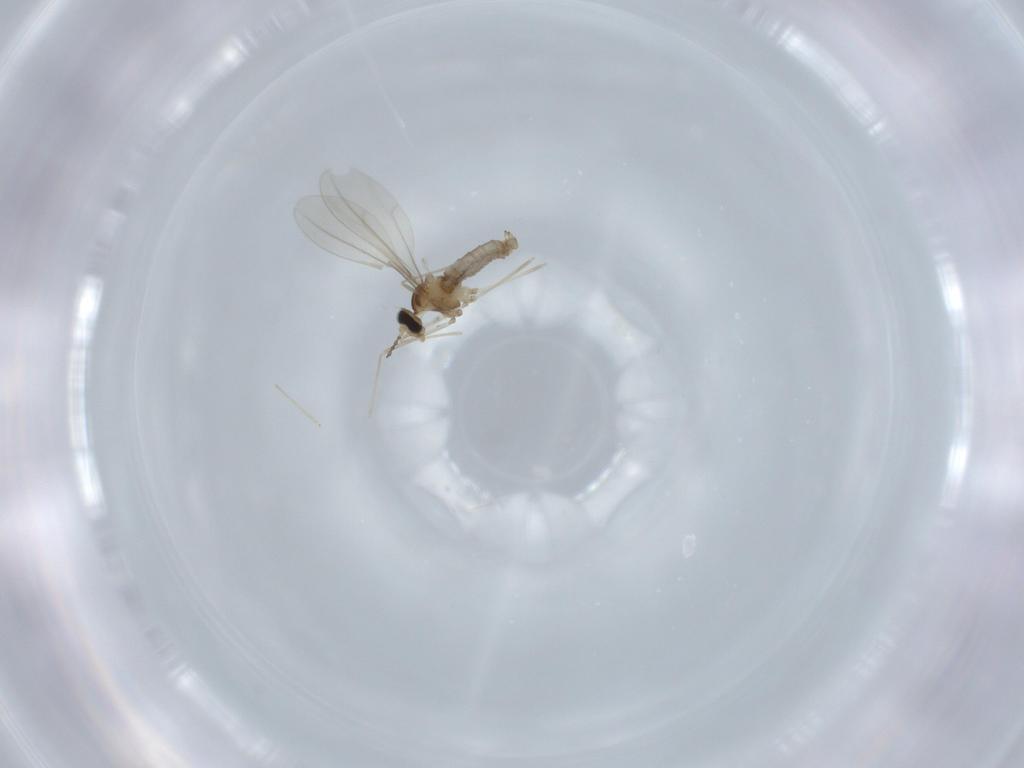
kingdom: Animalia
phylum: Arthropoda
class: Insecta
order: Diptera
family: Cecidomyiidae
